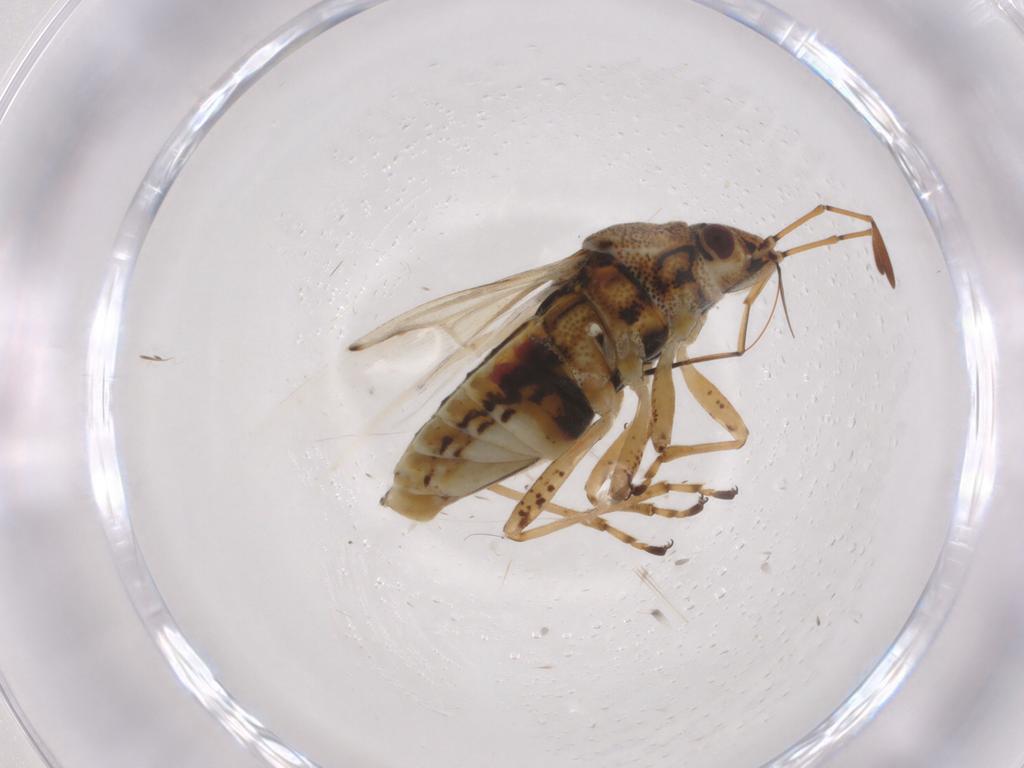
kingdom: Animalia
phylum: Arthropoda
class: Insecta
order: Hemiptera
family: Lygaeidae
